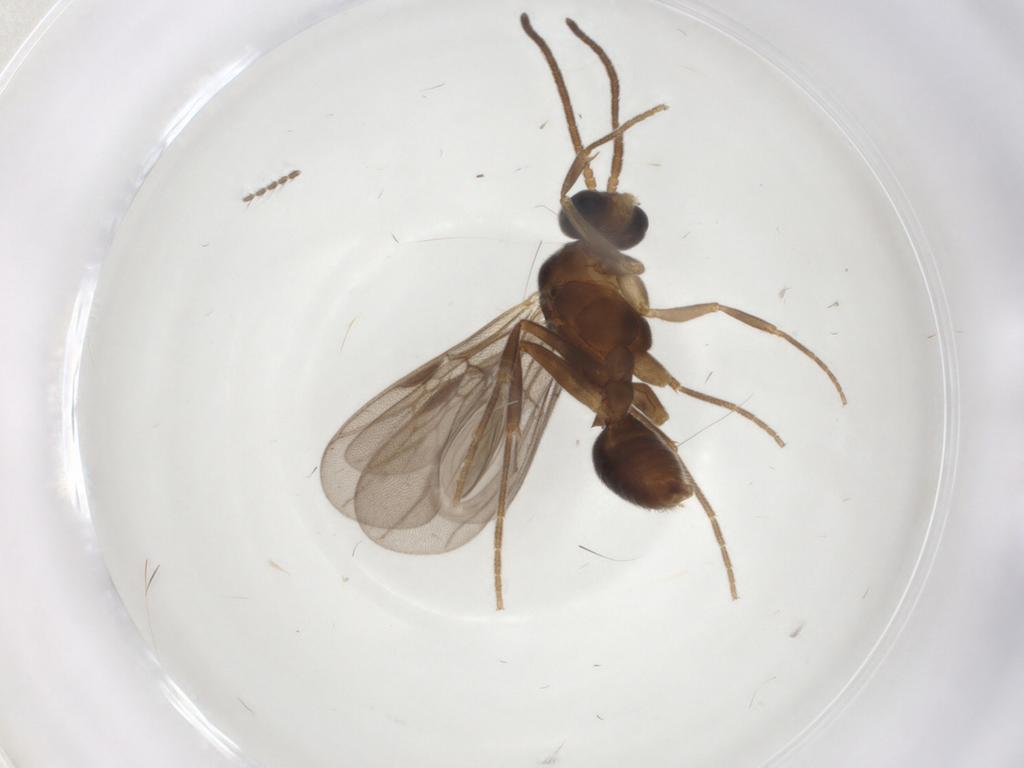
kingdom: Animalia
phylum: Arthropoda
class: Insecta
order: Hymenoptera
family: Formicidae
